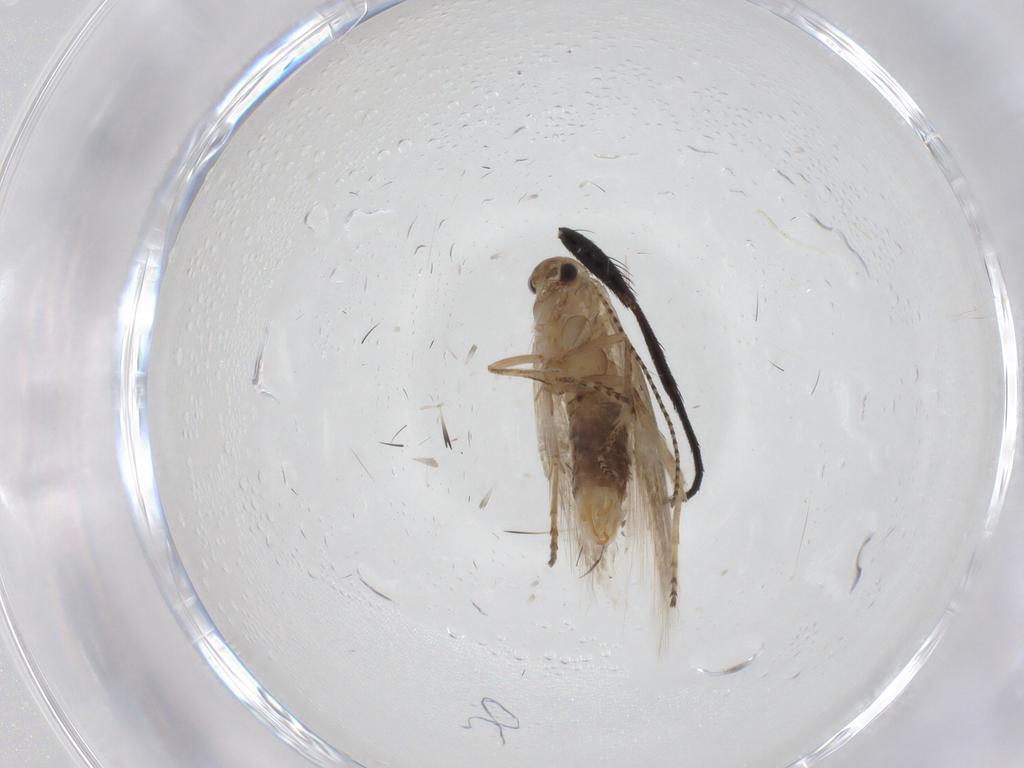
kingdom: Animalia
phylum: Arthropoda
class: Insecta
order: Lepidoptera
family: Bucculatricidae
